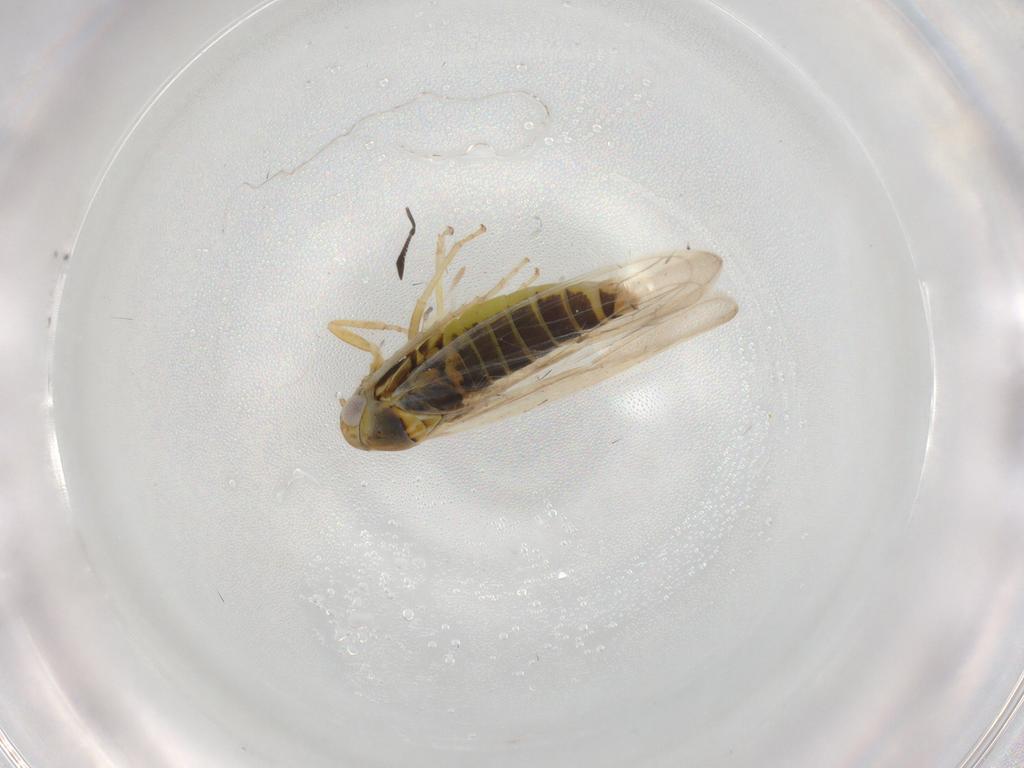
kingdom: Animalia
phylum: Arthropoda
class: Insecta
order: Hemiptera
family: Cicadellidae
